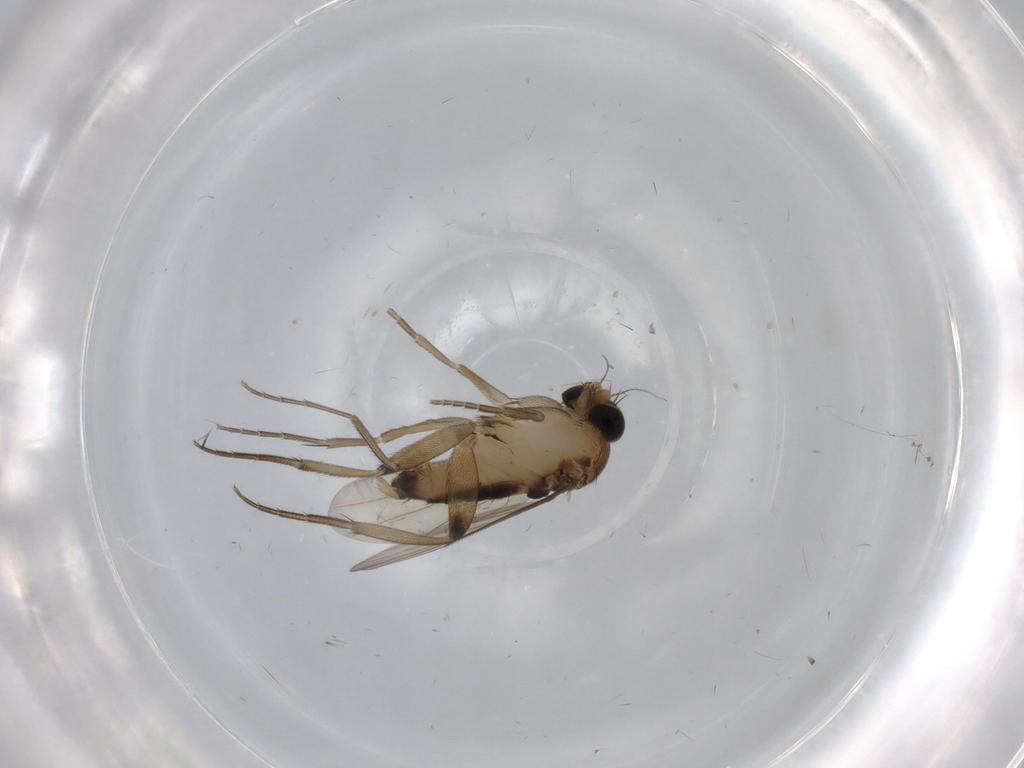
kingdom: Animalia
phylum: Arthropoda
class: Insecta
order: Diptera
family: Phoridae
